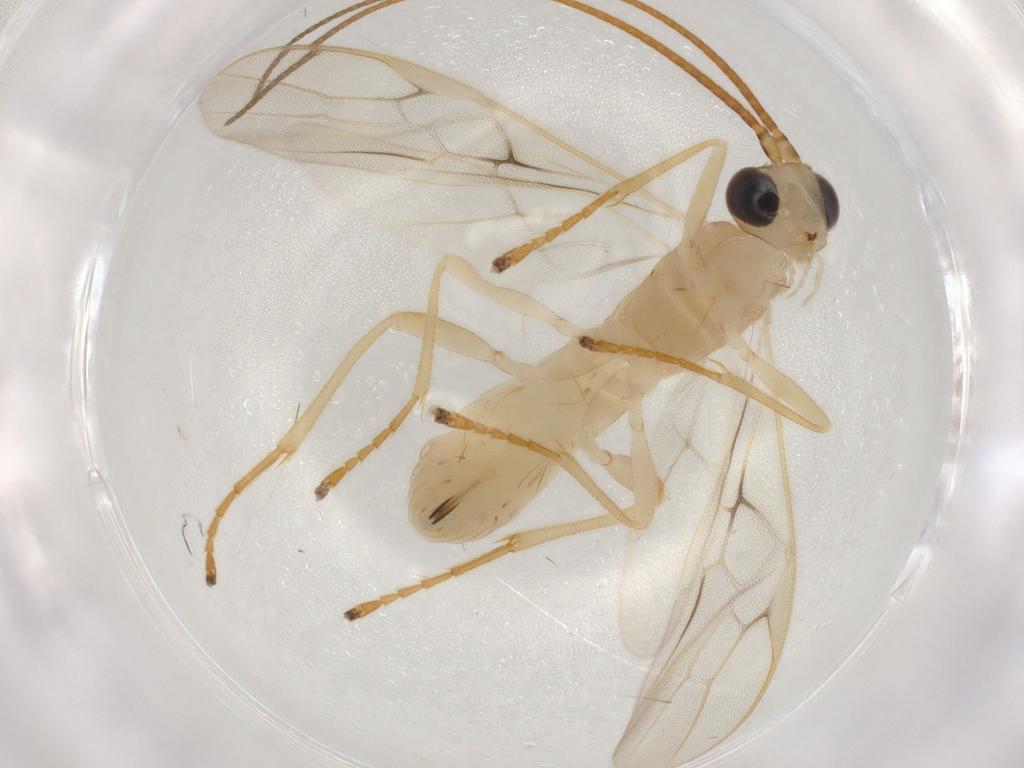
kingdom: Animalia
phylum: Arthropoda
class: Insecta
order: Hymenoptera
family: Braconidae
